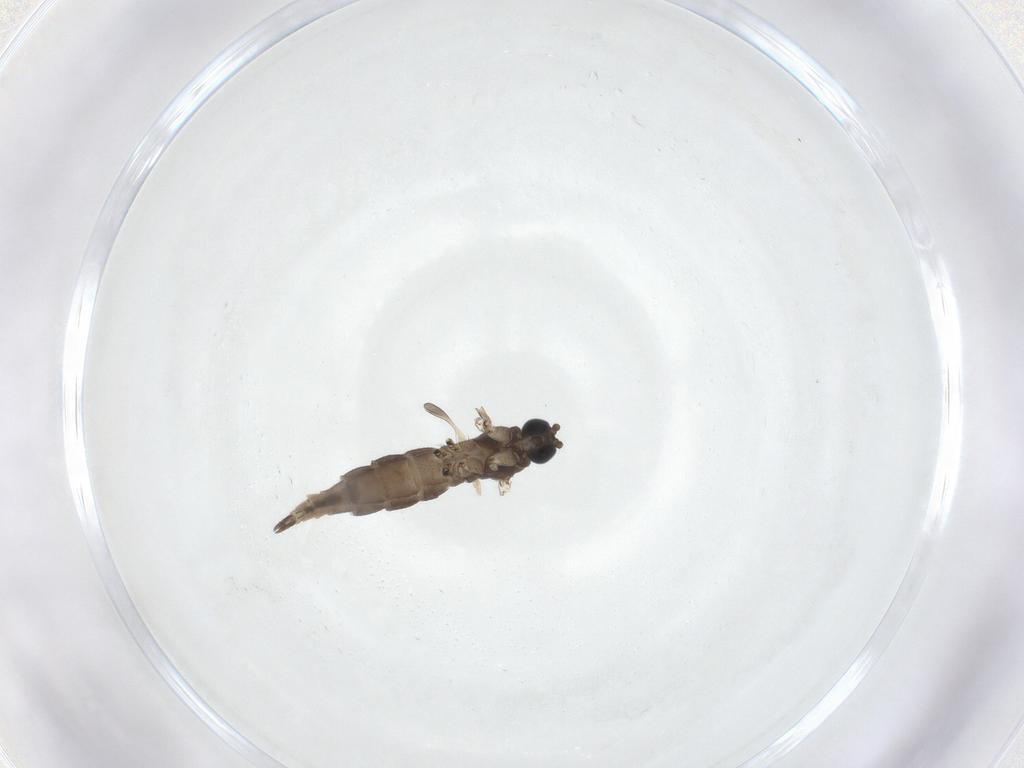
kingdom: Animalia
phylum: Arthropoda
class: Insecta
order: Diptera
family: Sciaridae
